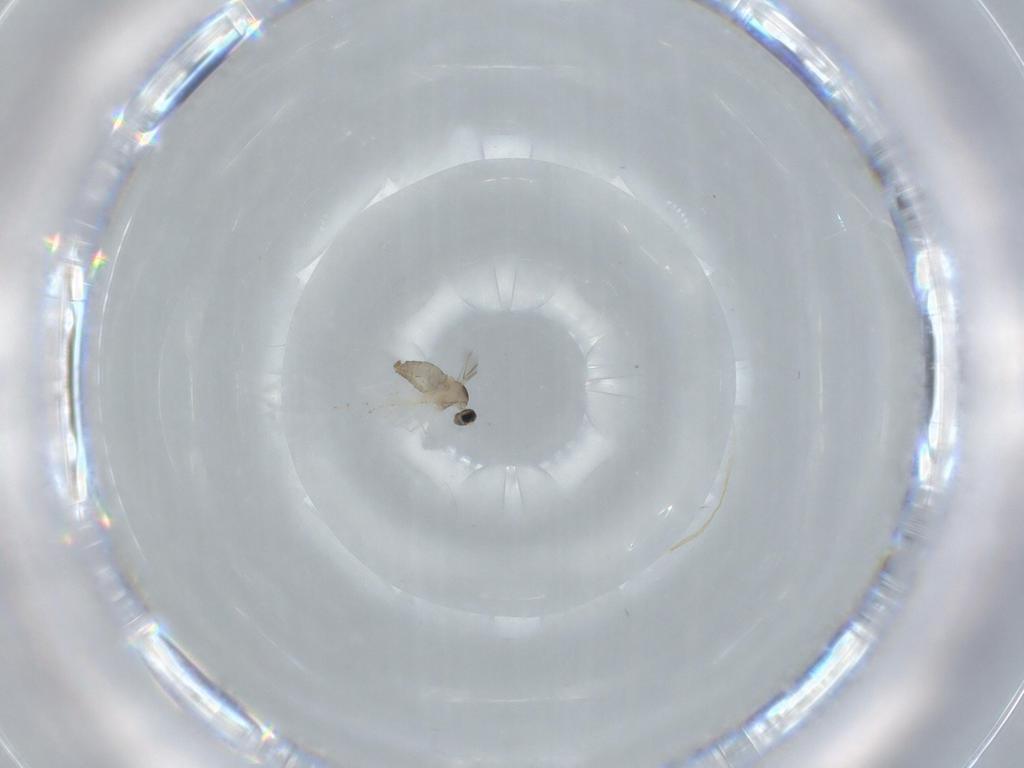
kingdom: Animalia
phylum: Arthropoda
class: Insecta
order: Diptera
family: Cecidomyiidae
